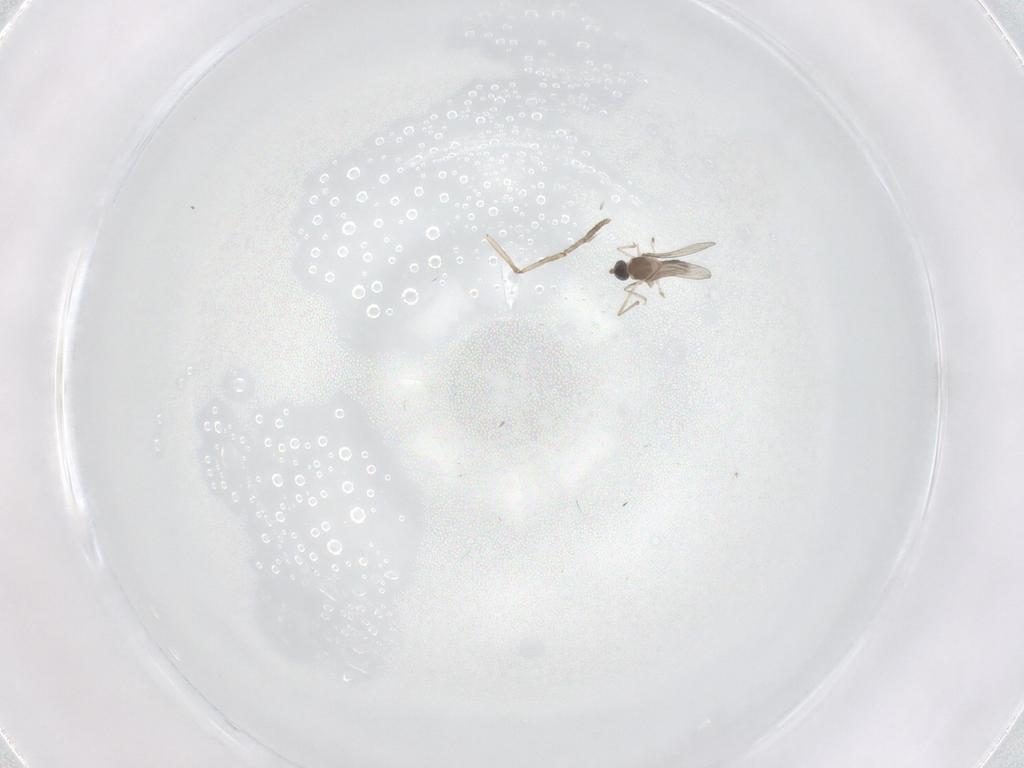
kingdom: Animalia
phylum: Arthropoda
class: Insecta
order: Diptera
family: Cecidomyiidae
